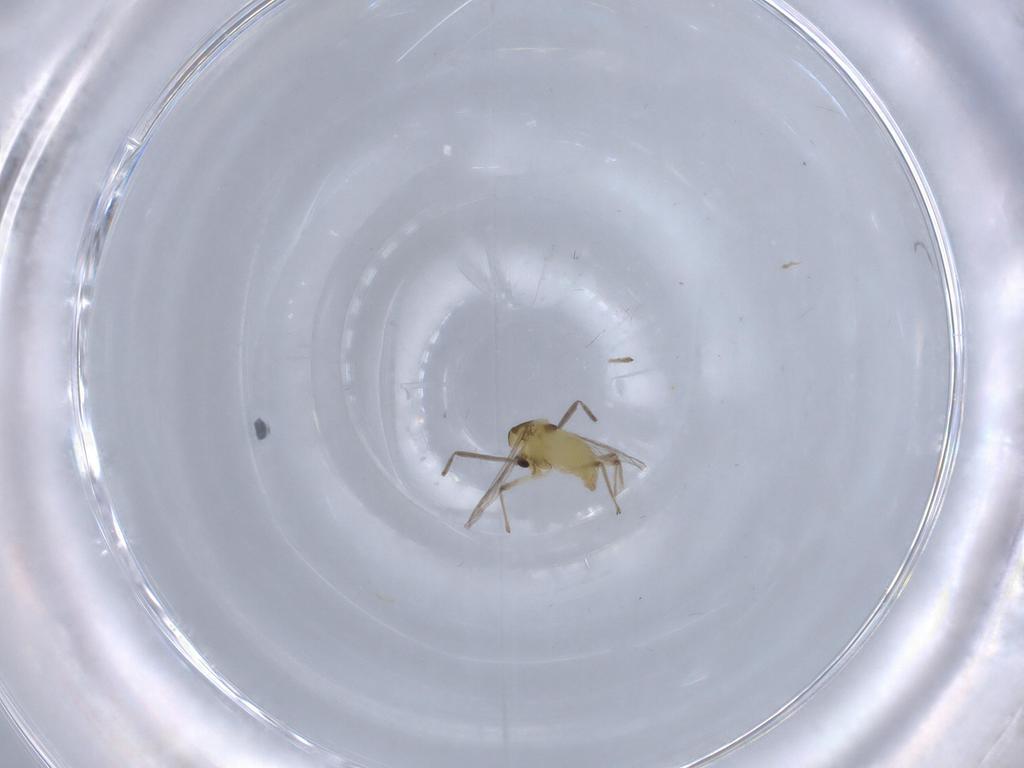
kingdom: Animalia
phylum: Arthropoda
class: Insecta
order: Diptera
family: Chironomidae
